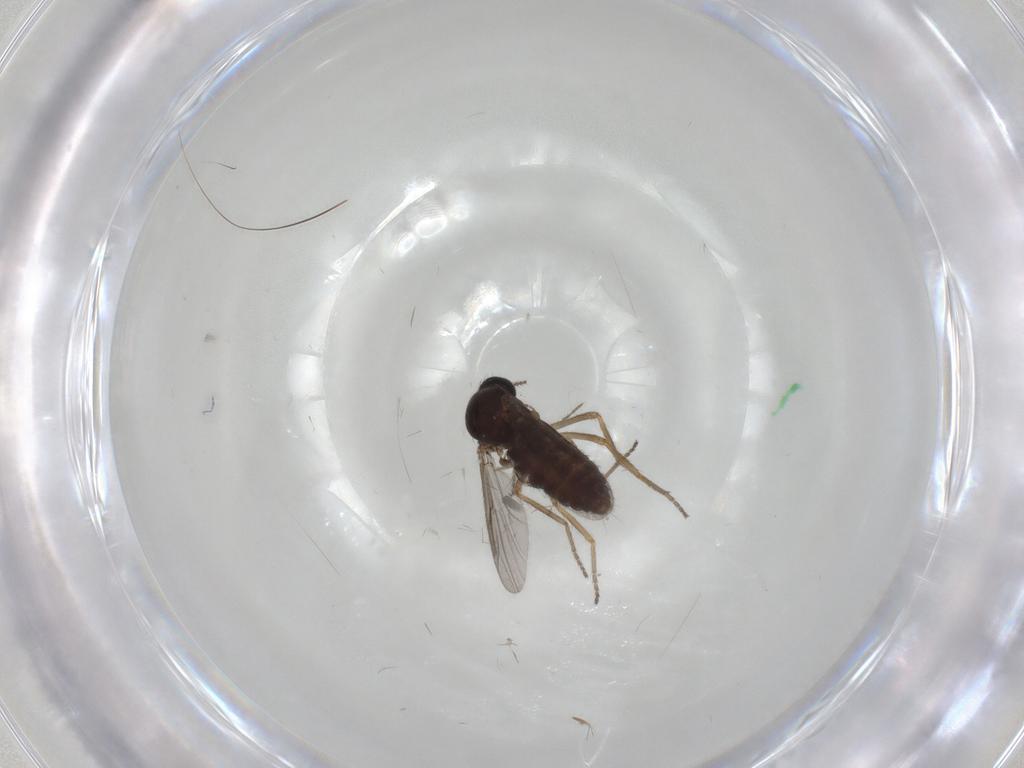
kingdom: Animalia
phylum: Arthropoda
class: Insecta
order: Diptera
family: Ceratopogonidae
